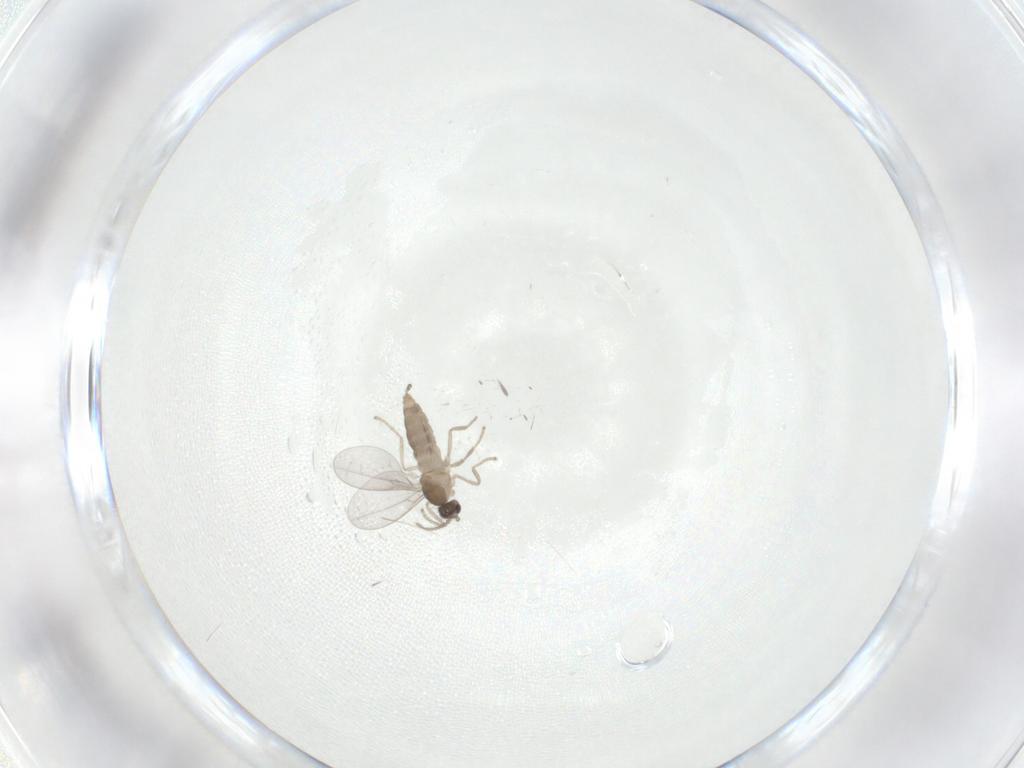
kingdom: Animalia
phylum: Arthropoda
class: Insecta
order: Diptera
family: Cecidomyiidae
